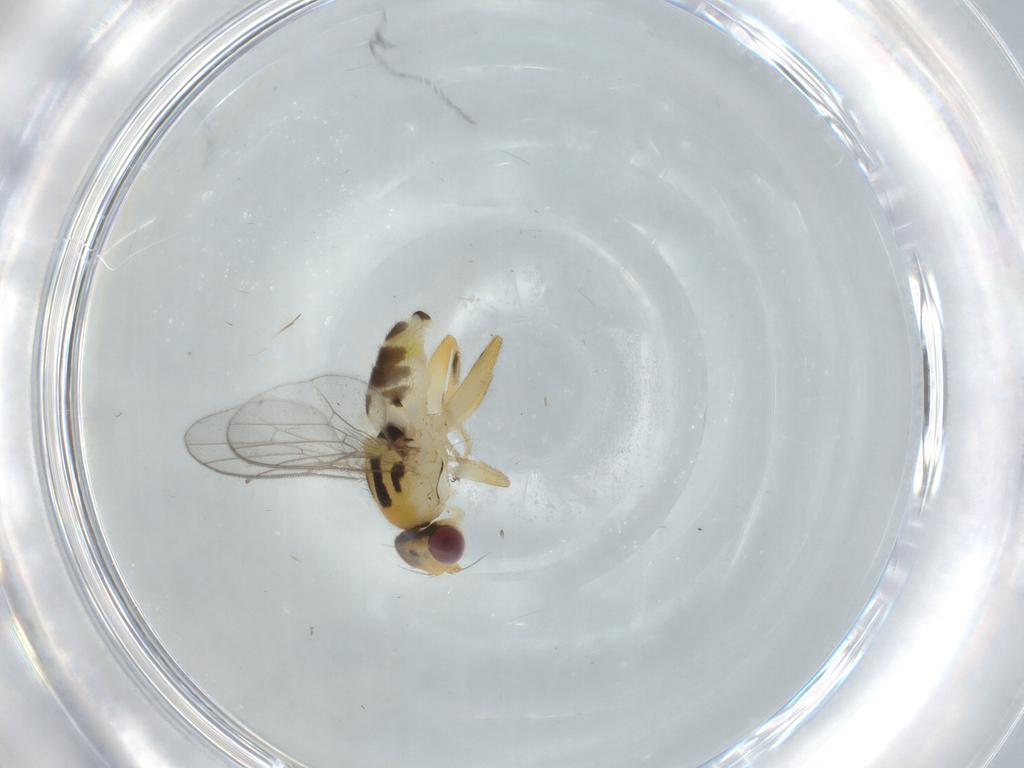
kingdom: Animalia
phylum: Arthropoda
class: Insecta
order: Diptera
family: Chloropidae
